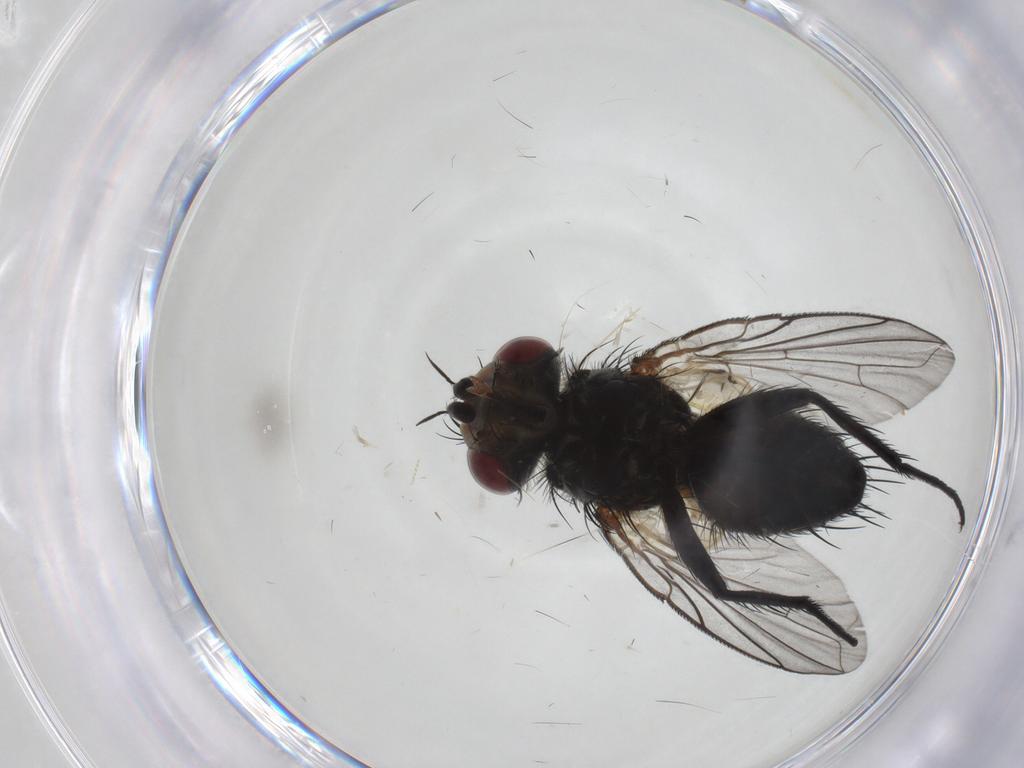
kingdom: Animalia
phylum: Arthropoda
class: Insecta
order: Diptera
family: Tachinidae
